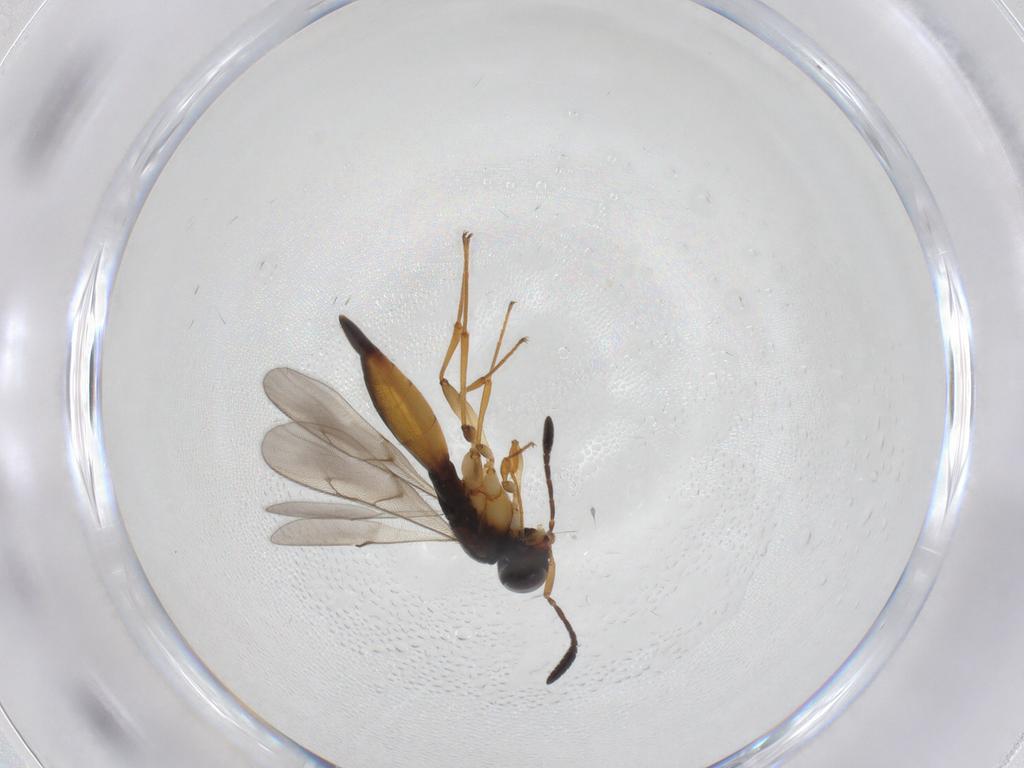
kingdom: Animalia
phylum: Arthropoda
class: Insecta
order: Hymenoptera
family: Scelionidae
